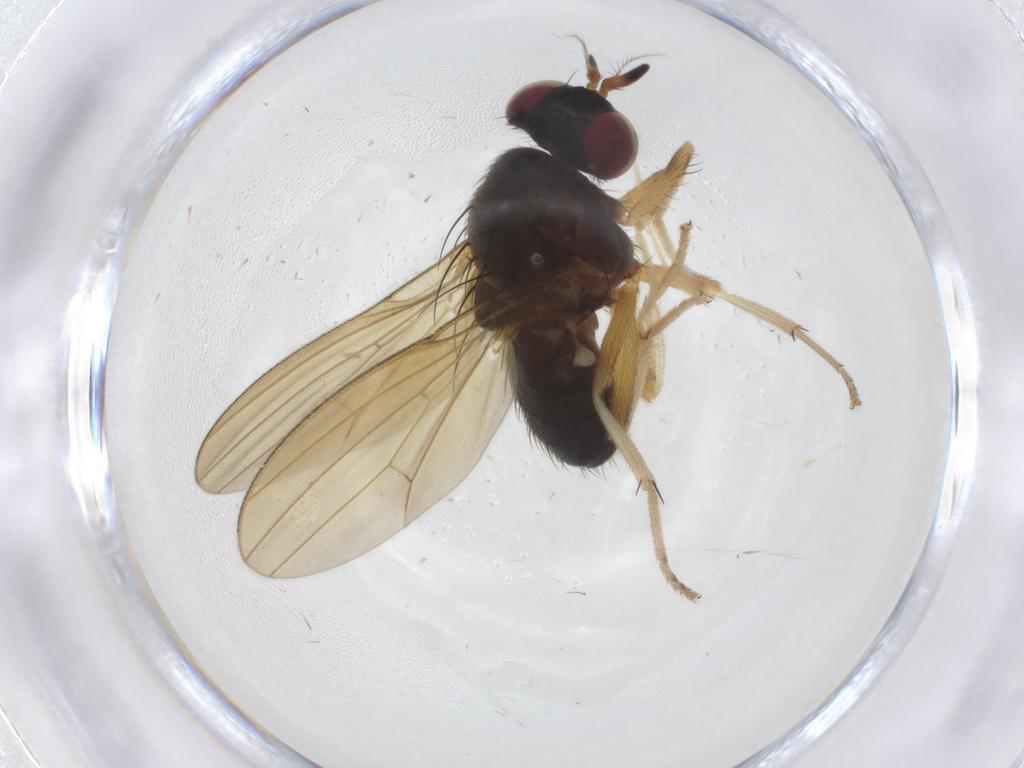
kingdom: Animalia
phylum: Arthropoda
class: Insecta
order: Diptera
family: Lauxaniidae
